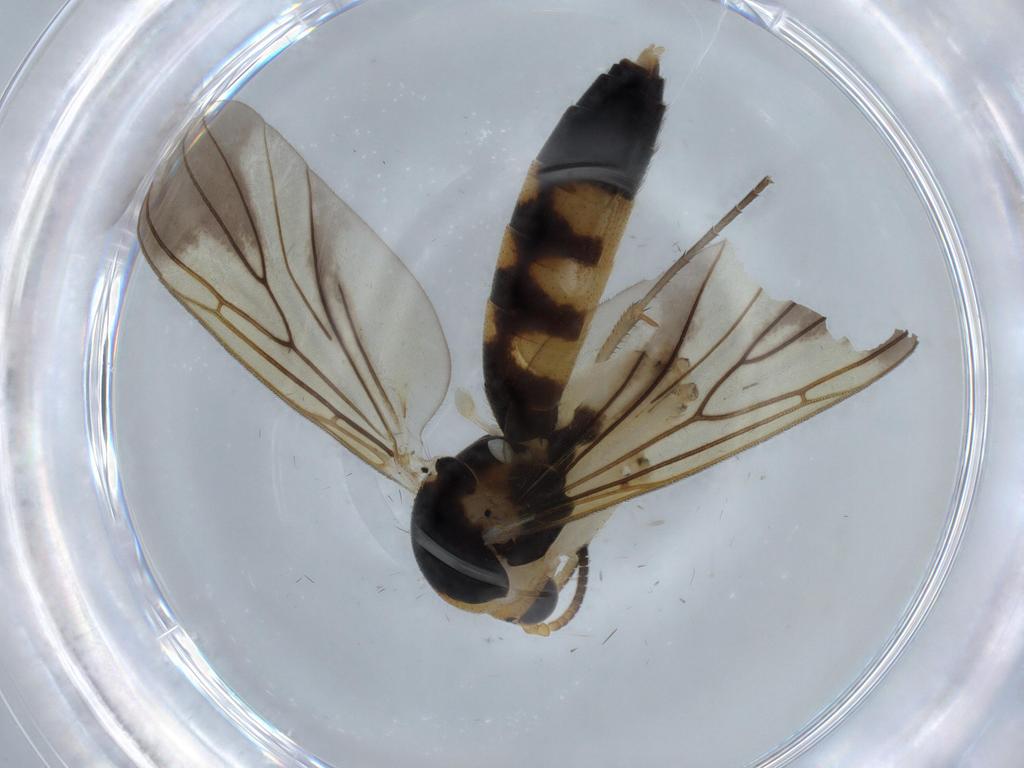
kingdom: Animalia
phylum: Arthropoda
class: Insecta
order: Diptera
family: Ceratopogonidae
